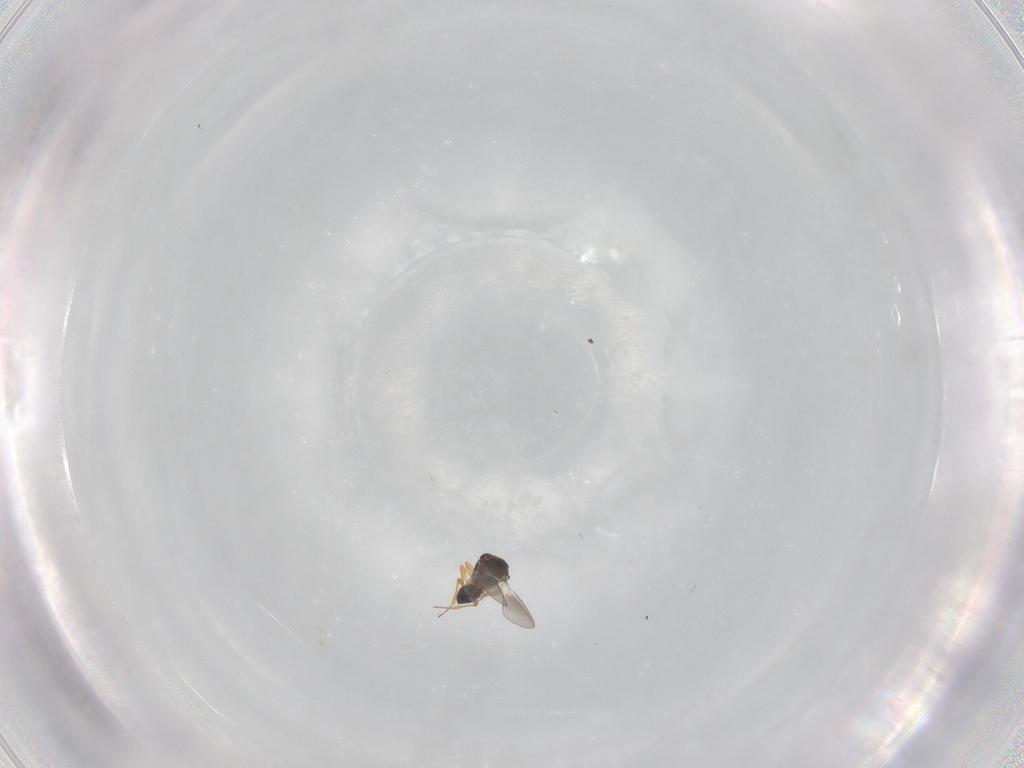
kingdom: Animalia
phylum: Arthropoda
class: Insecta
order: Hymenoptera
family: Platygastridae
